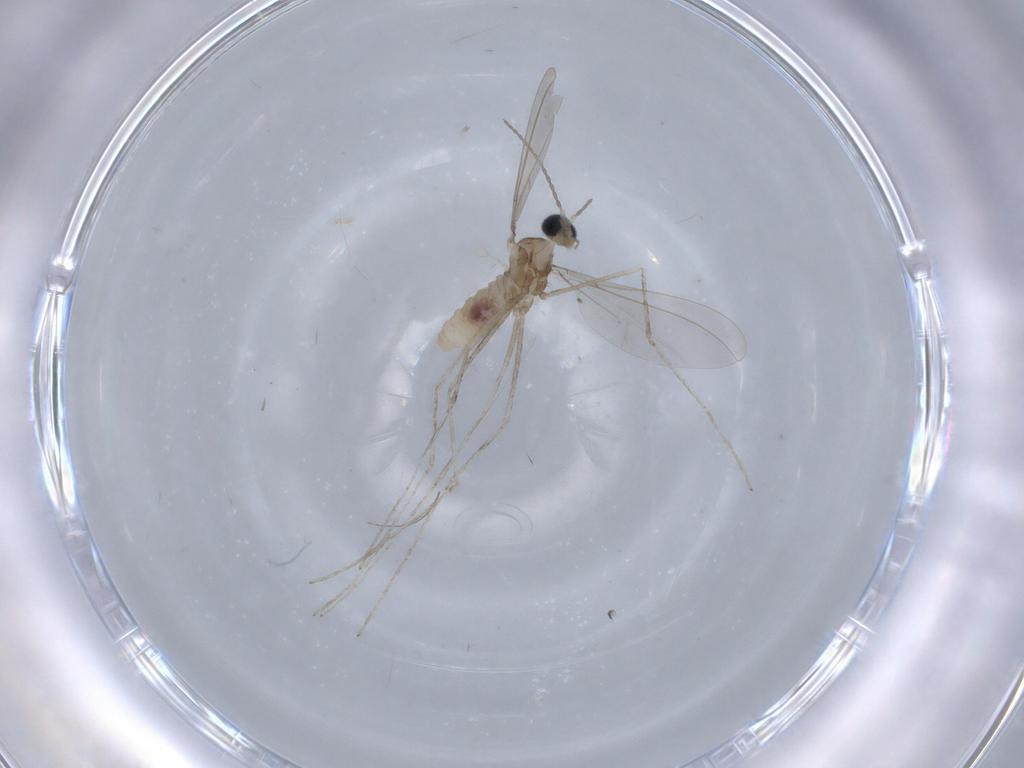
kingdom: Animalia
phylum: Arthropoda
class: Insecta
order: Diptera
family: Cecidomyiidae
